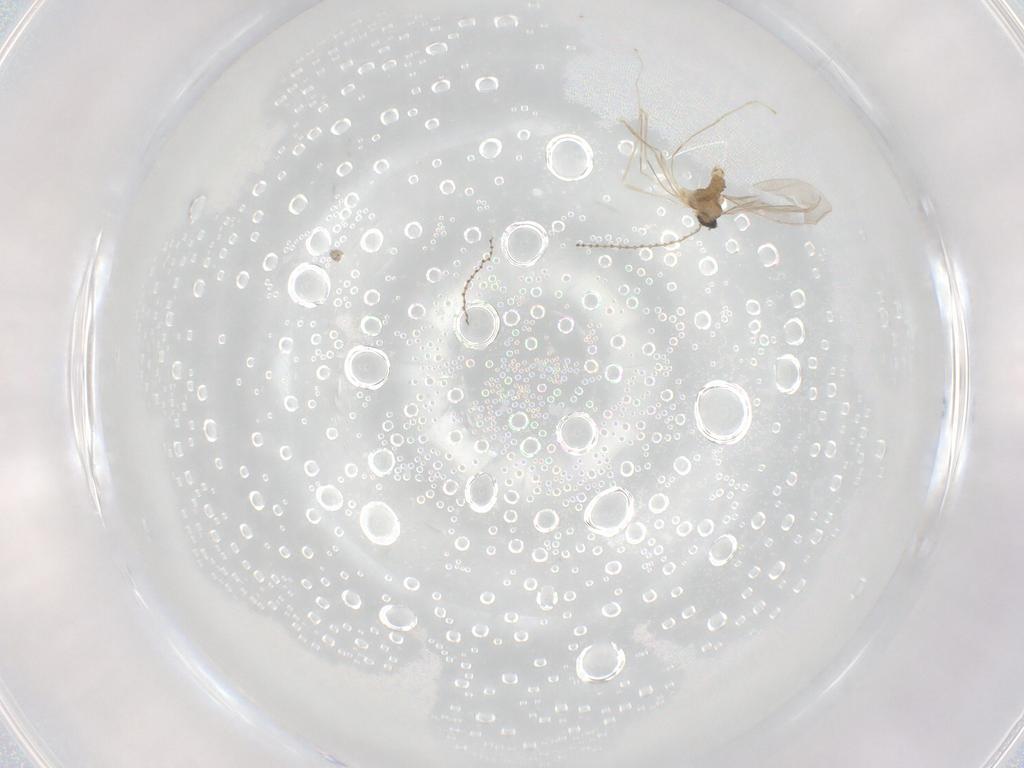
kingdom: Animalia
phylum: Arthropoda
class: Insecta
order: Diptera
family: Cecidomyiidae
